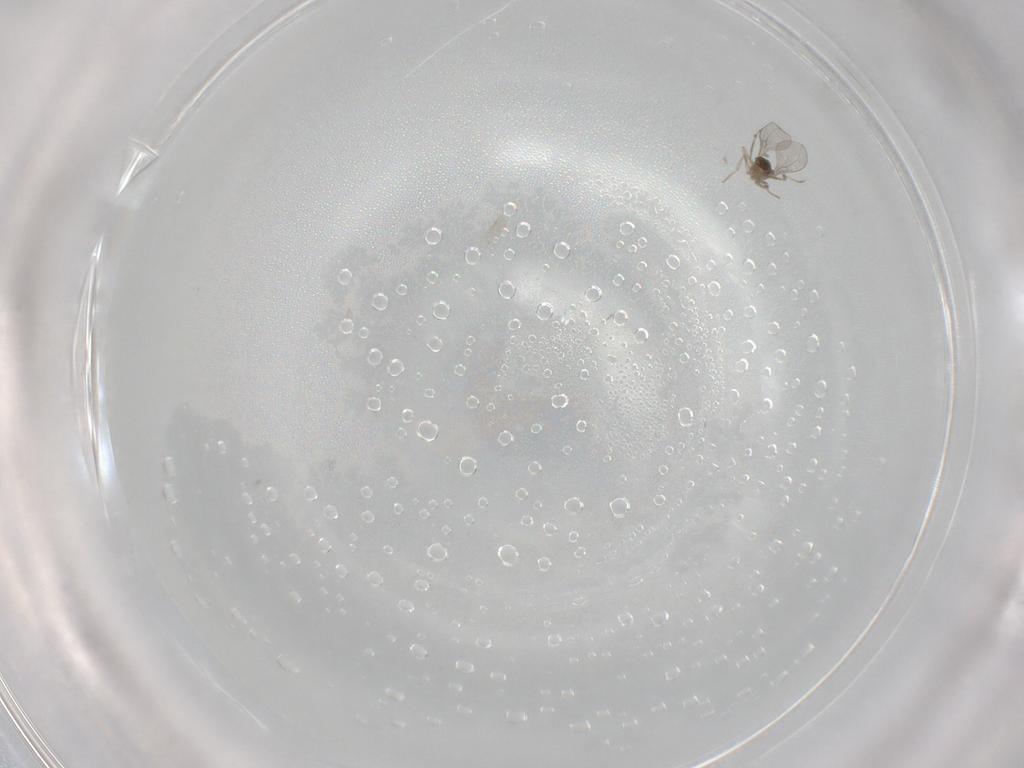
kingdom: Animalia
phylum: Arthropoda
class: Insecta
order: Diptera
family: Cecidomyiidae
